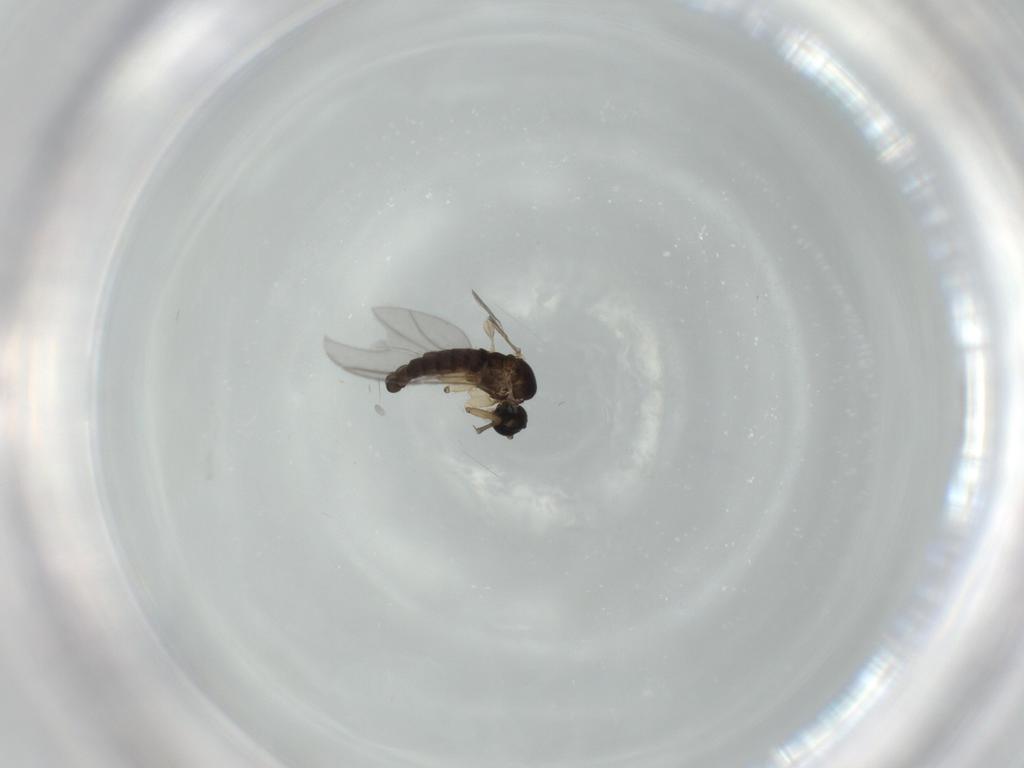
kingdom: Animalia
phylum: Arthropoda
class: Insecta
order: Diptera
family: Sciaridae
